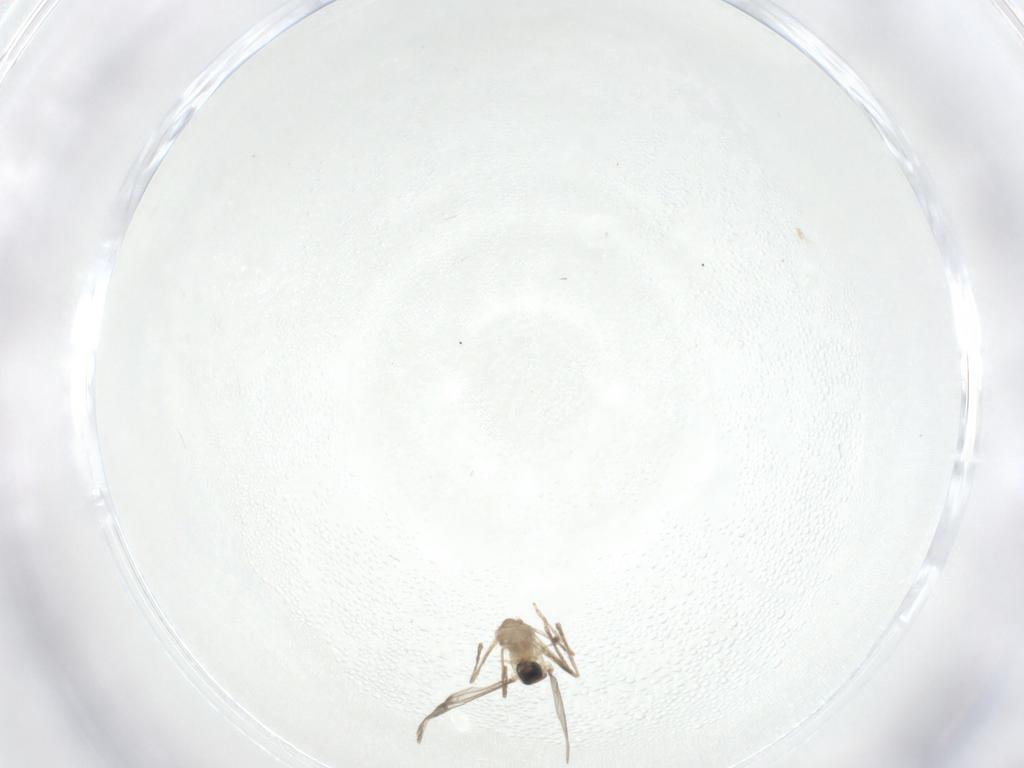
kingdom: Animalia
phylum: Arthropoda
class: Insecta
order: Diptera
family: Cecidomyiidae
